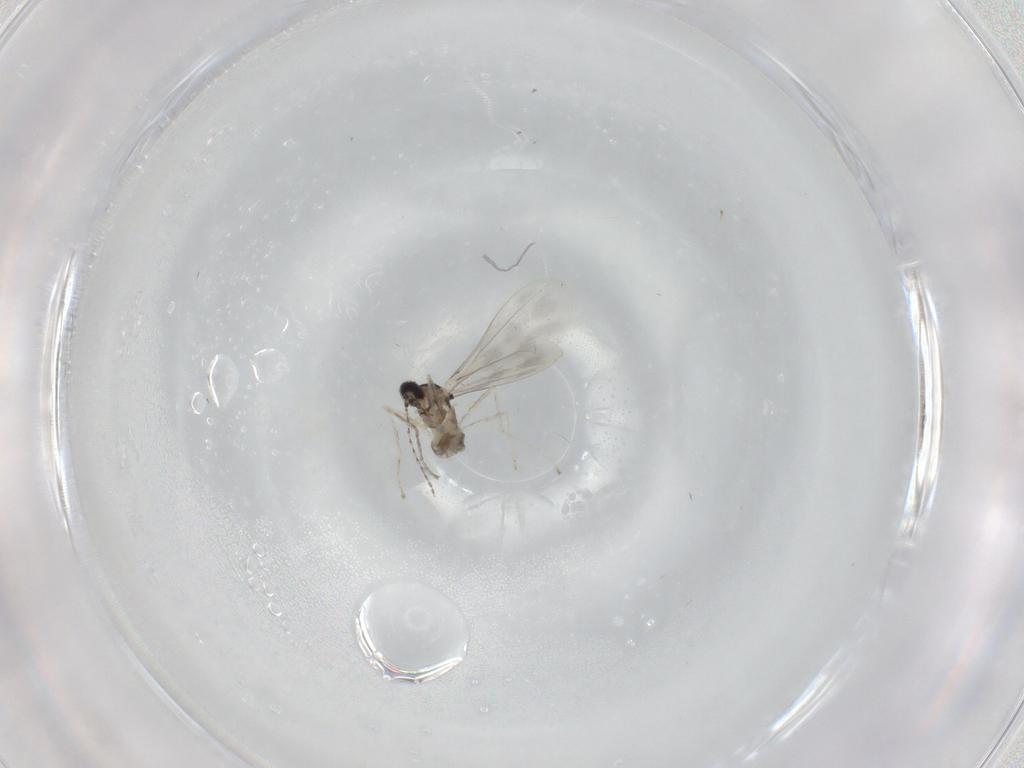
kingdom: Animalia
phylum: Arthropoda
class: Insecta
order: Diptera
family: Cecidomyiidae
